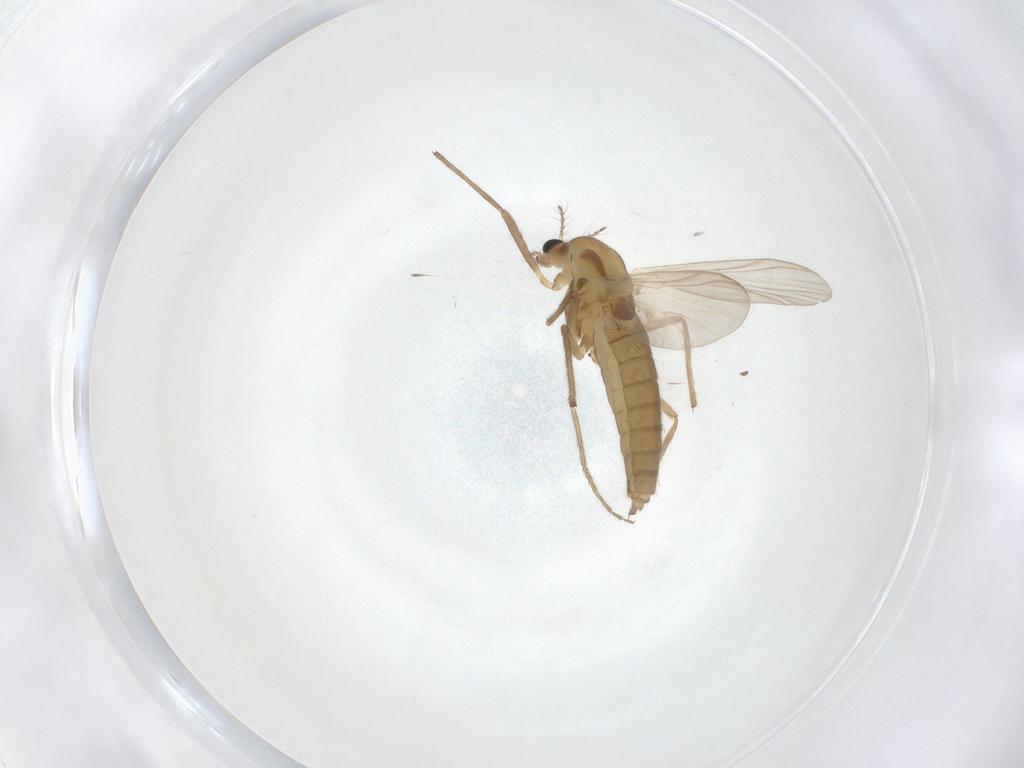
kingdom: Animalia
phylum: Arthropoda
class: Insecta
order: Diptera
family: Chironomidae
